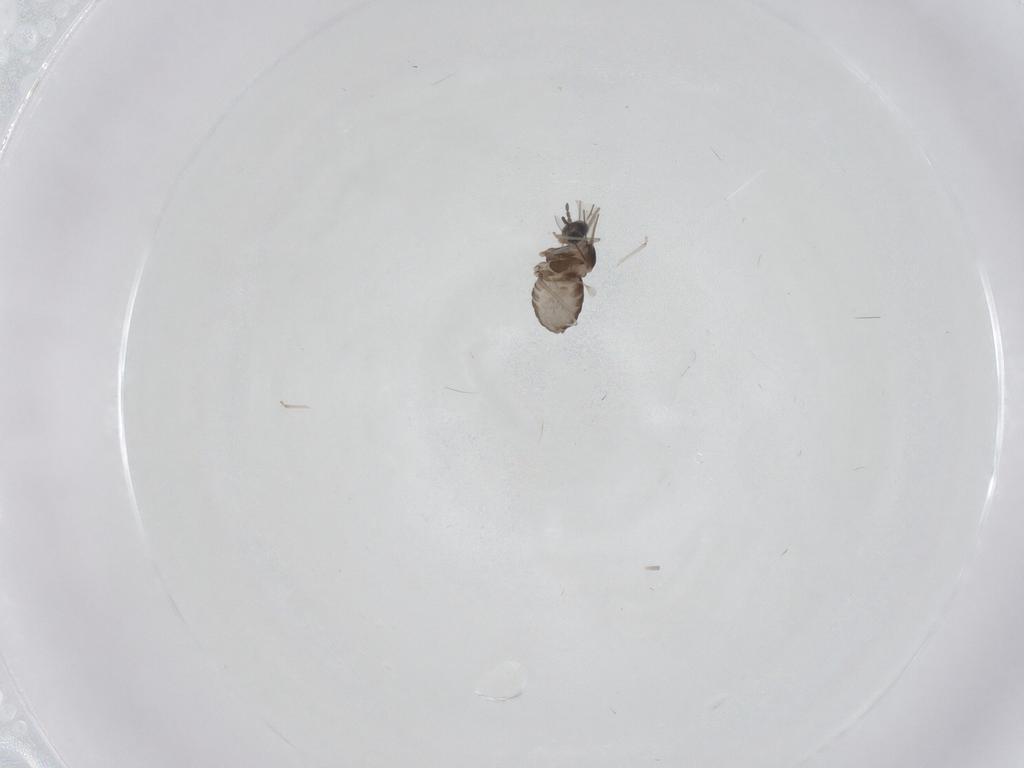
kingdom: Animalia
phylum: Arthropoda
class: Insecta
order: Diptera
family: Cecidomyiidae
